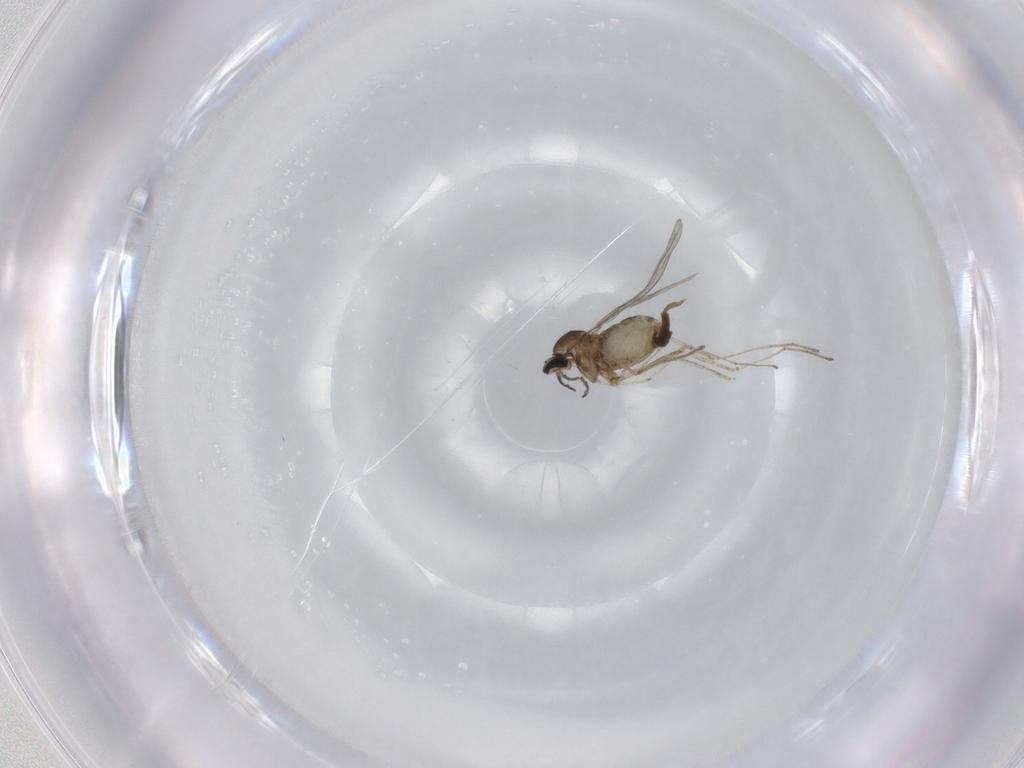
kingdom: Animalia
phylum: Arthropoda
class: Insecta
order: Diptera
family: Cecidomyiidae
